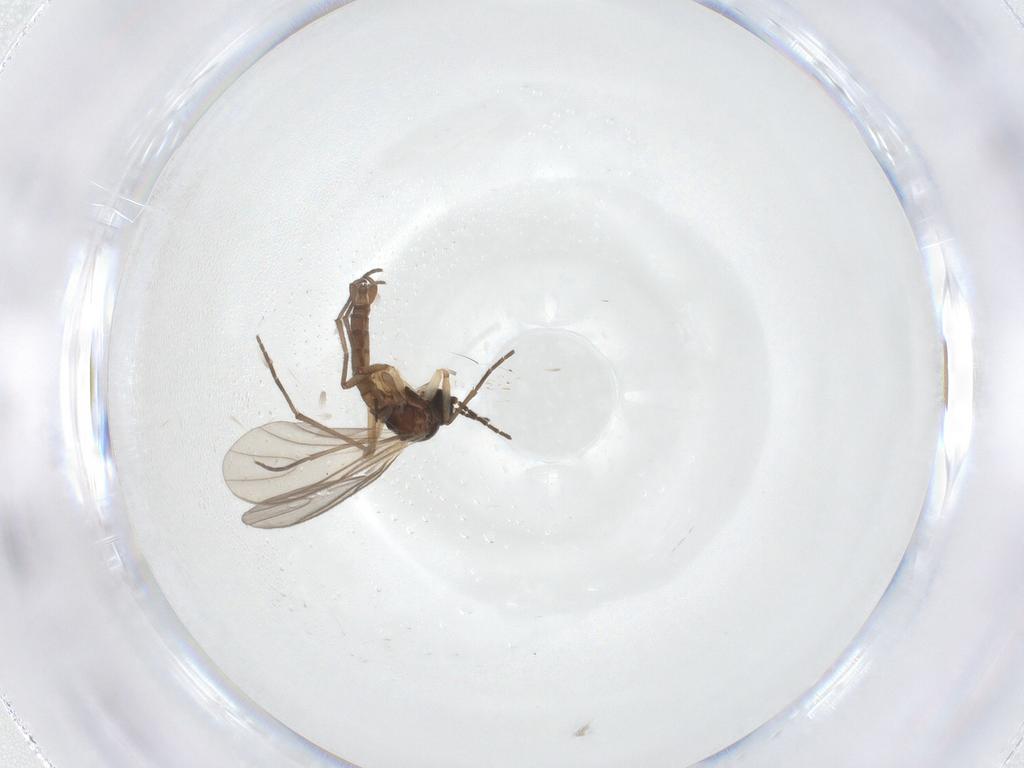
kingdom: Animalia
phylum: Arthropoda
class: Insecta
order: Diptera
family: Sciaridae
